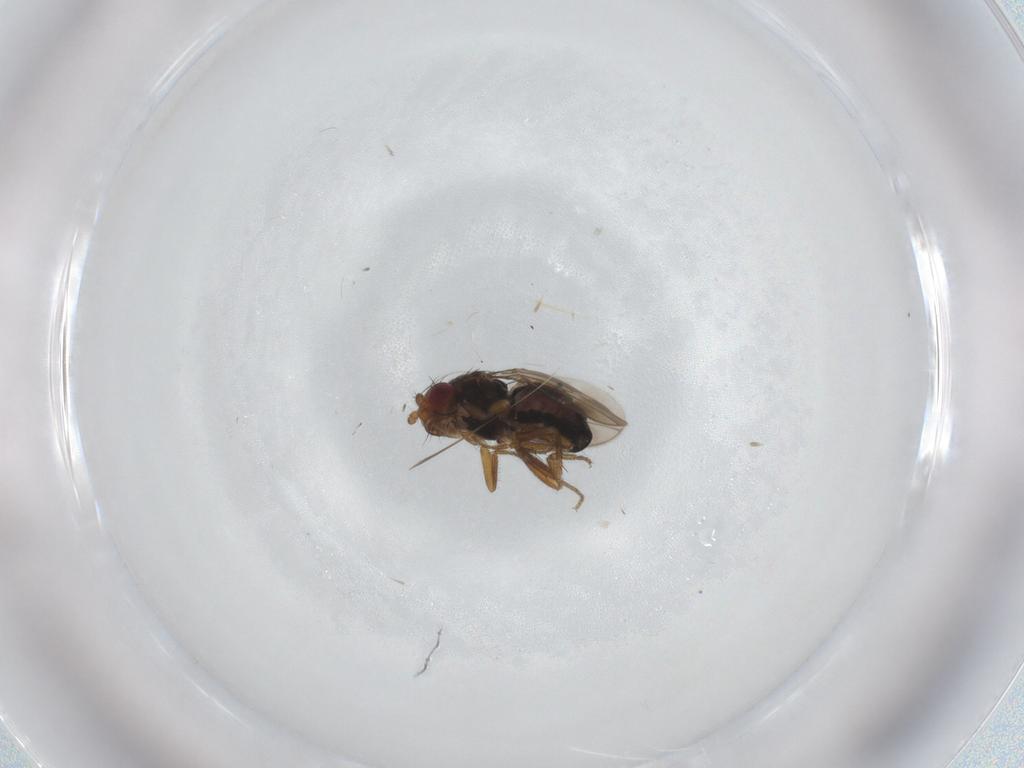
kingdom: Animalia
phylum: Arthropoda
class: Insecta
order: Diptera
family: Sphaeroceridae
